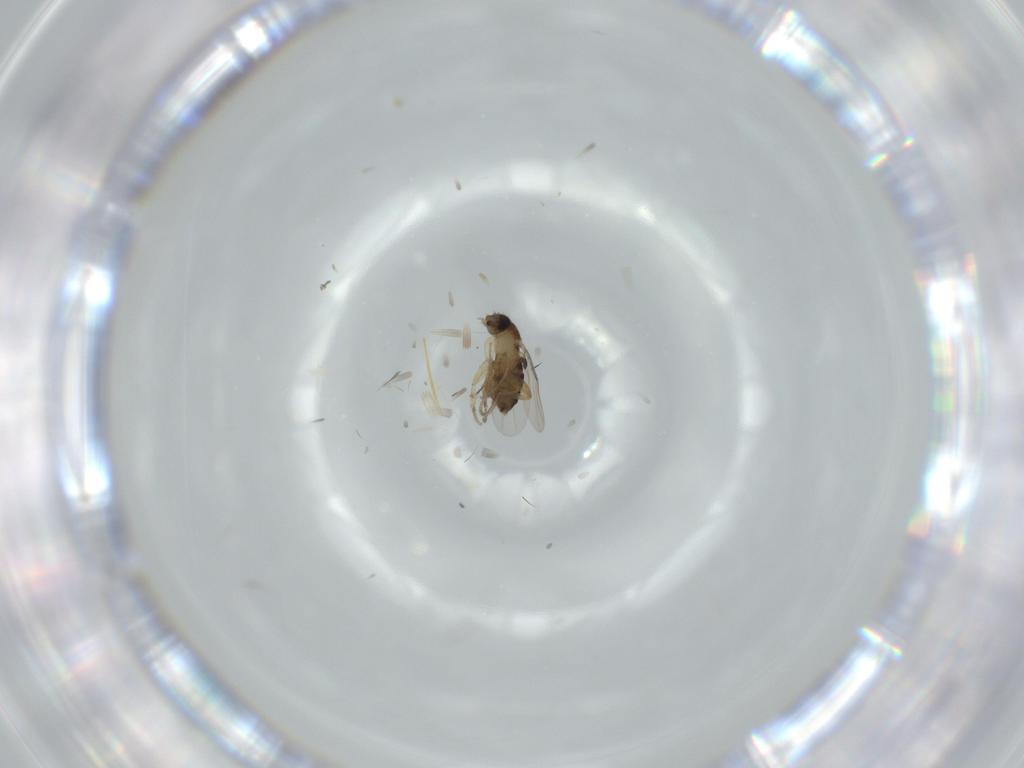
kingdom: Animalia
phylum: Arthropoda
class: Insecta
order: Diptera
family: Phoridae
